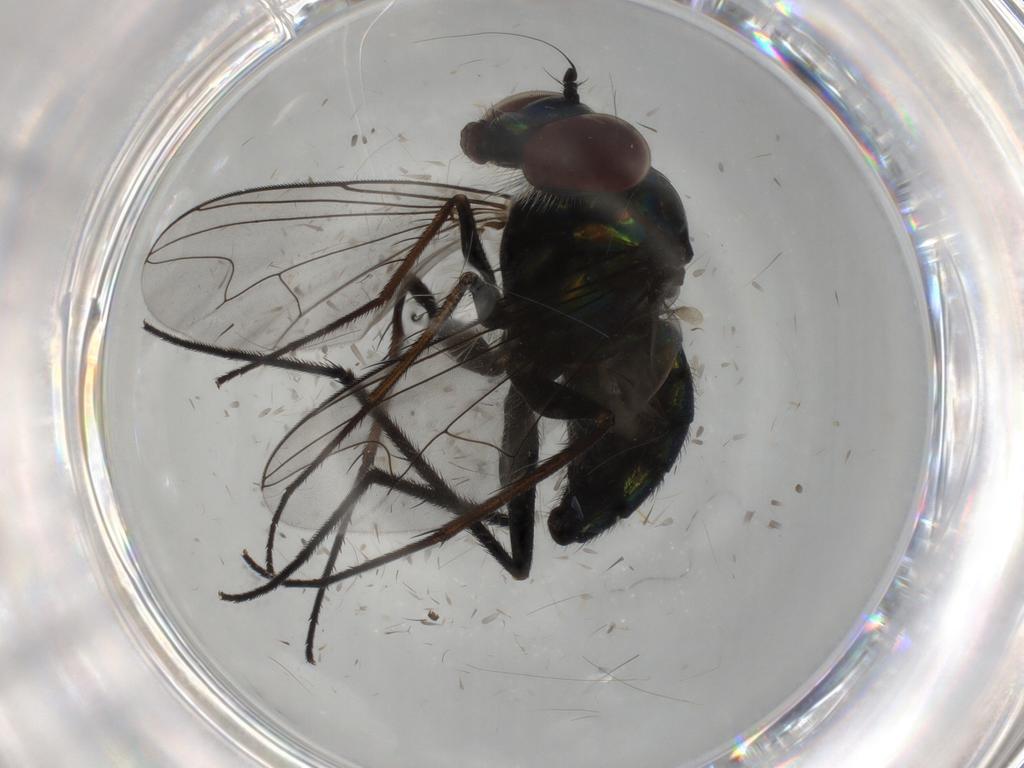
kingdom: Animalia
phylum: Arthropoda
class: Insecta
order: Diptera
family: Dolichopodidae
